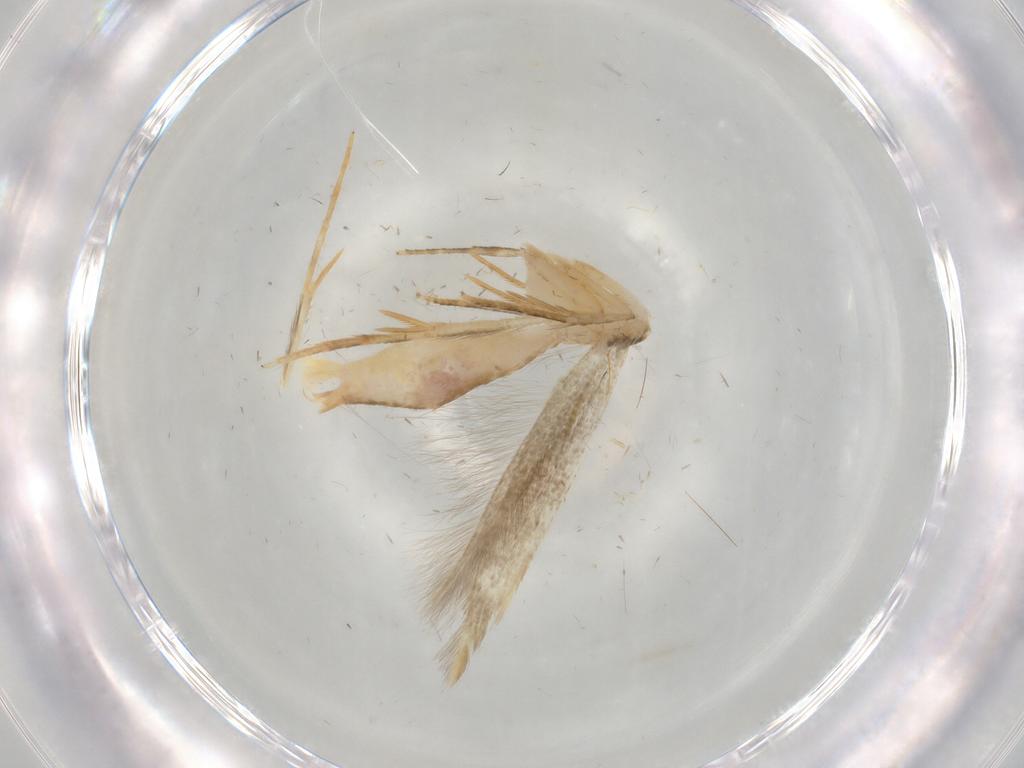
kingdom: Animalia
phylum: Arthropoda
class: Insecta
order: Lepidoptera
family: Gelechiidae
